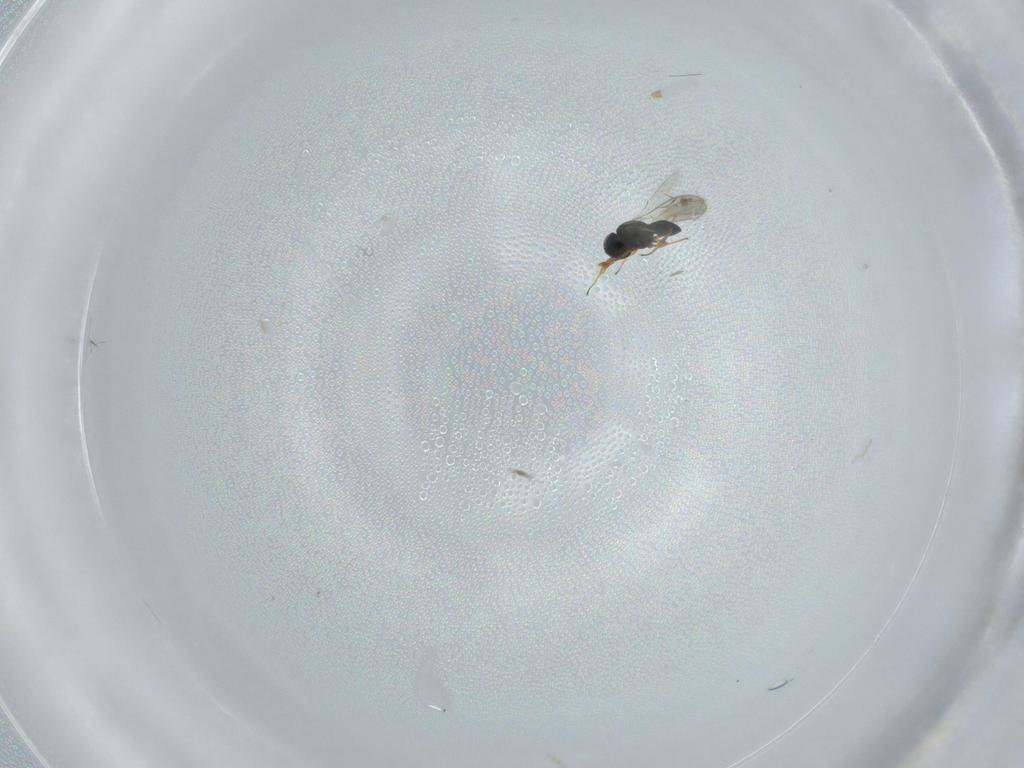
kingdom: Animalia
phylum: Arthropoda
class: Insecta
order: Hymenoptera
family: Scelionidae
